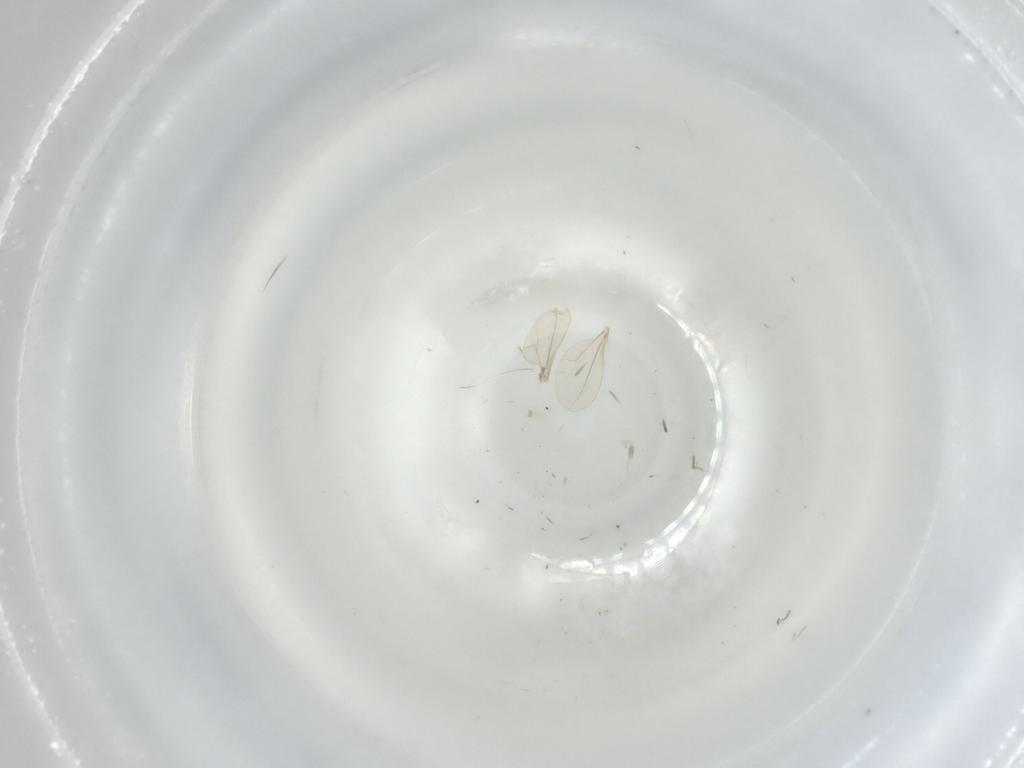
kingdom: Animalia
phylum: Arthropoda
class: Insecta
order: Diptera
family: Cecidomyiidae
